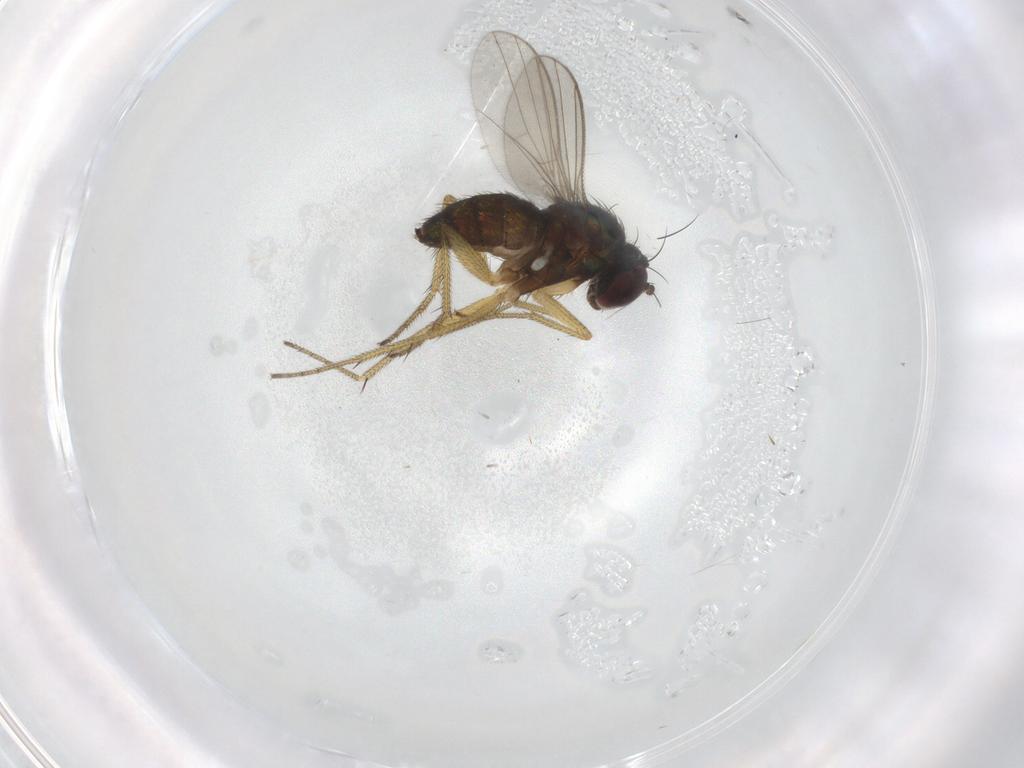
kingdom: Animalia
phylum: Arthropoda
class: Insecta
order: Diptera
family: Dolichopodidae
